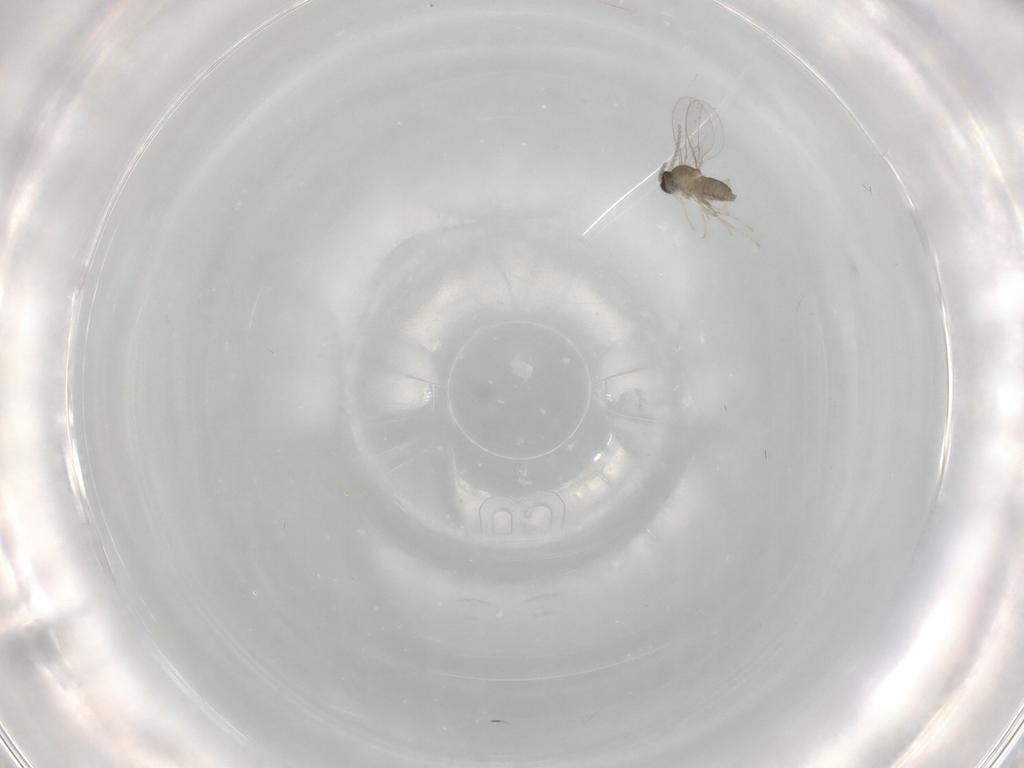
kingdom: Animalia
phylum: Arthropoda
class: Insecta
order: Diptera
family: Cecidomyiidae
